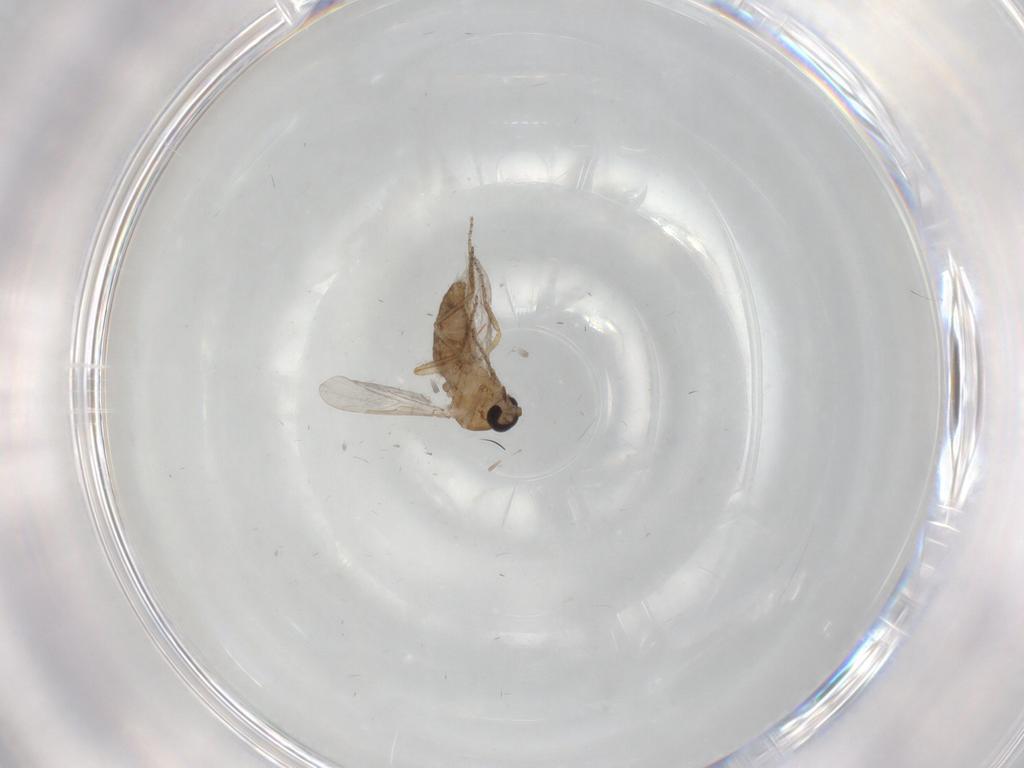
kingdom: Animalia
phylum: Arthropoda
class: Insecta
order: Diptera
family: Ceratopogonidae
